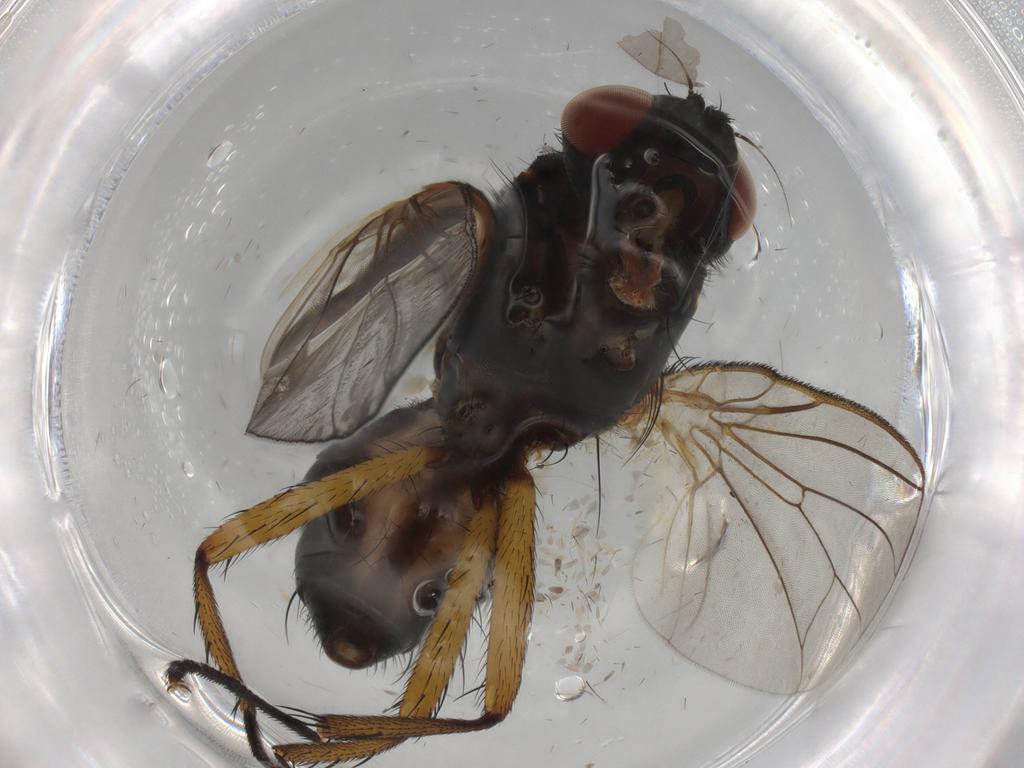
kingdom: Animalia
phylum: Arthropoda
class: Insecta
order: Diptera
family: Anthomyiidae
